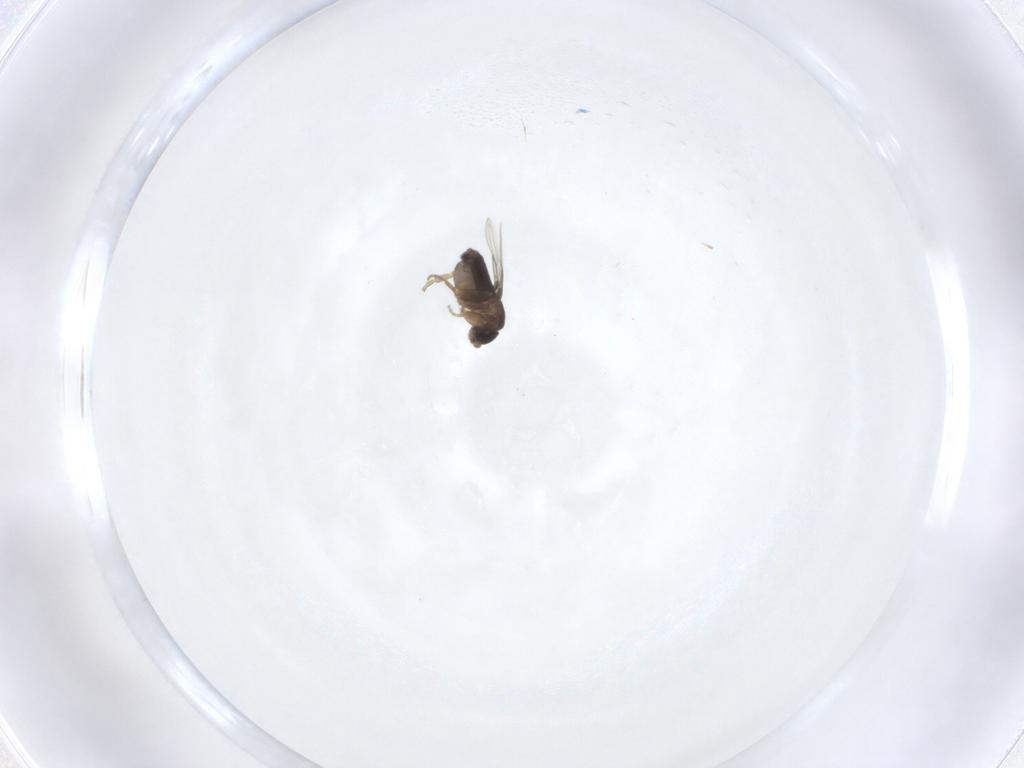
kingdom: Animalia
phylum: Arthropoda
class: Insecta
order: Diptera
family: Phoridae
